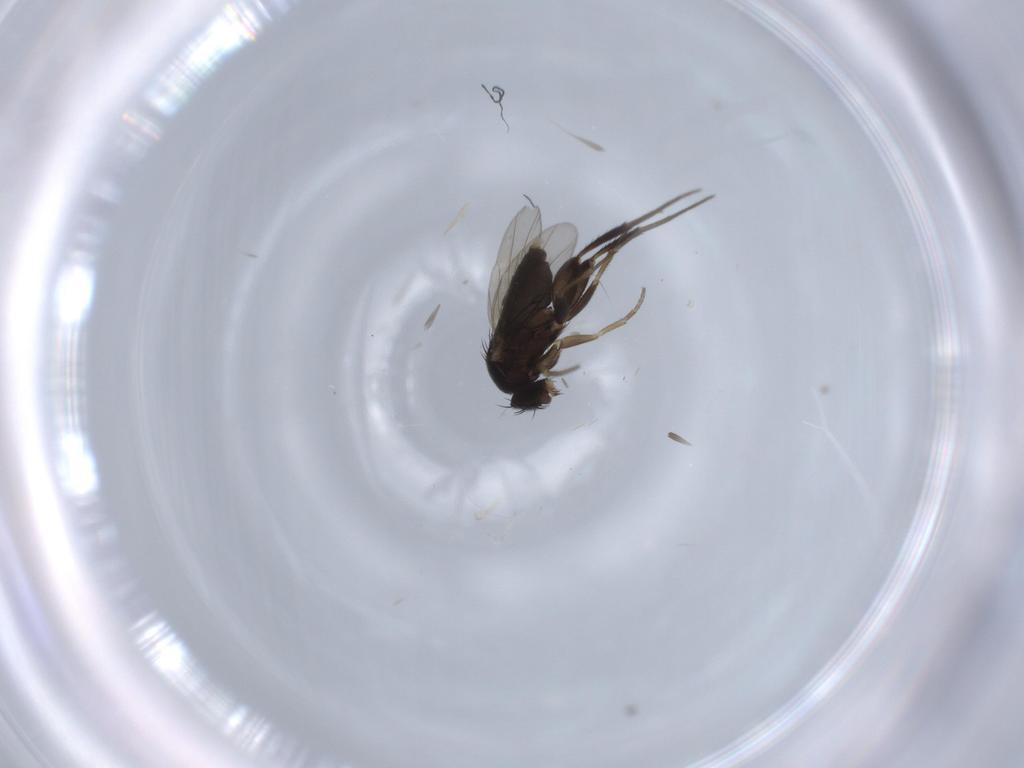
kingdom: Animalia
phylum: Arthropoda
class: Insecta
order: Diptera
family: Phoridae
